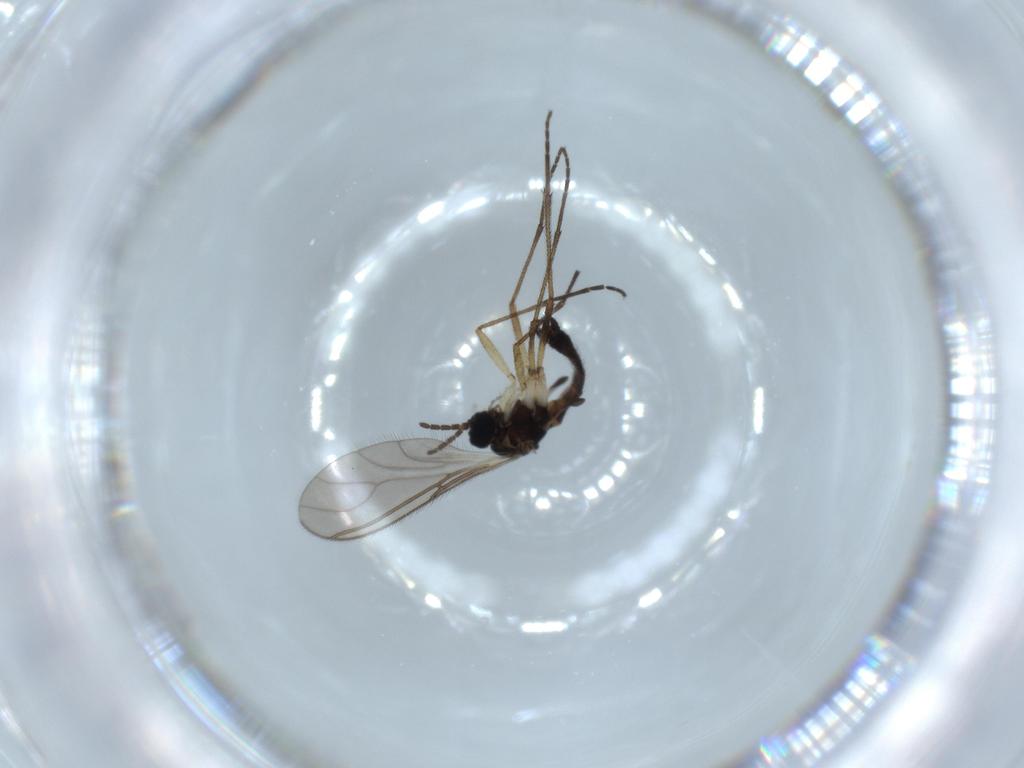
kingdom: Animalia
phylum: Arthropoda
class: Insecta
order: Diptera
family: Sciaridae
